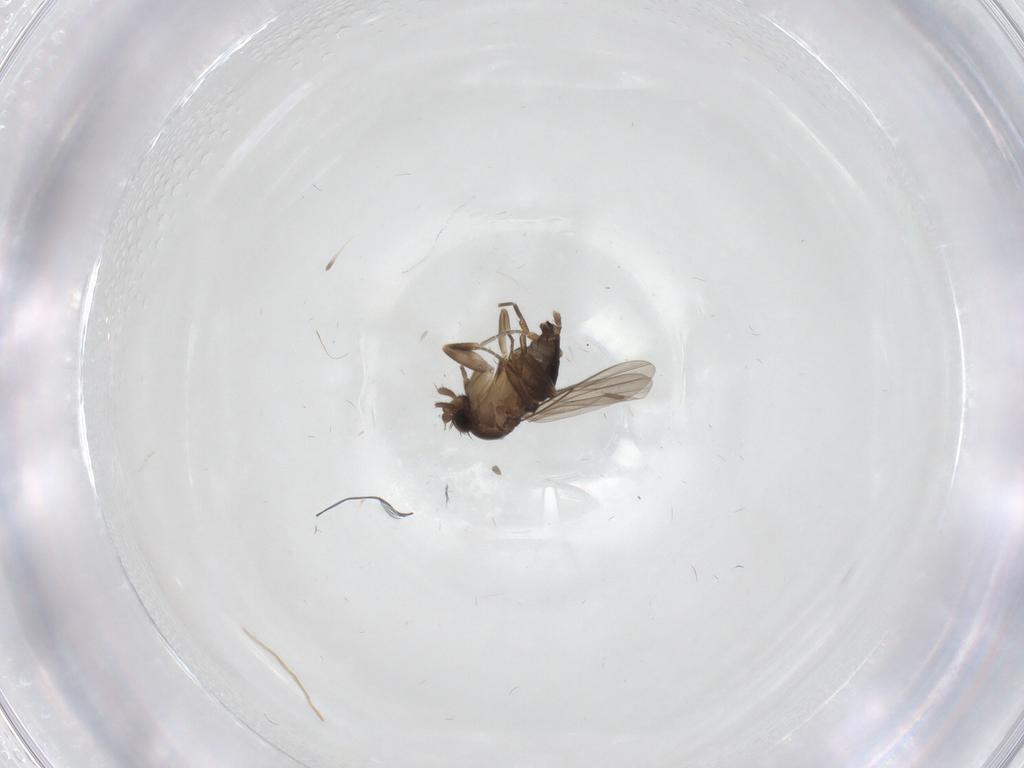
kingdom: Animalia
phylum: Arthropoda
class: Insecta
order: Diptera
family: Phoridae
